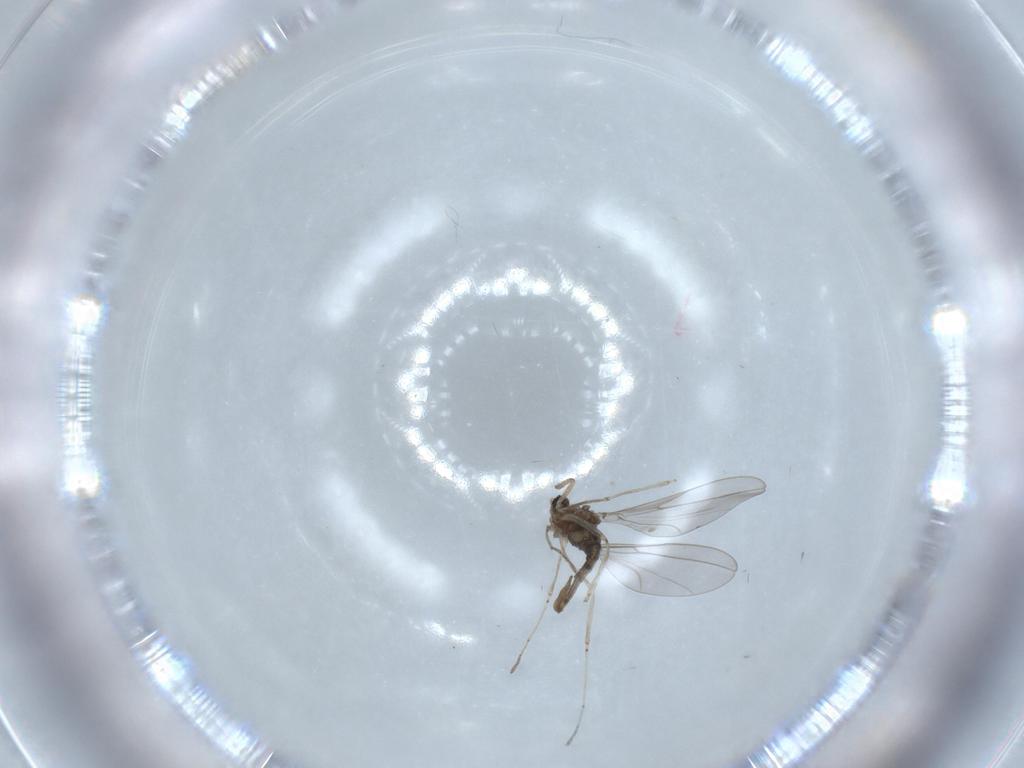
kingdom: Animalia
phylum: Arthropoda
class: Insecta
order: Diptera
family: Cecidomyiidae
